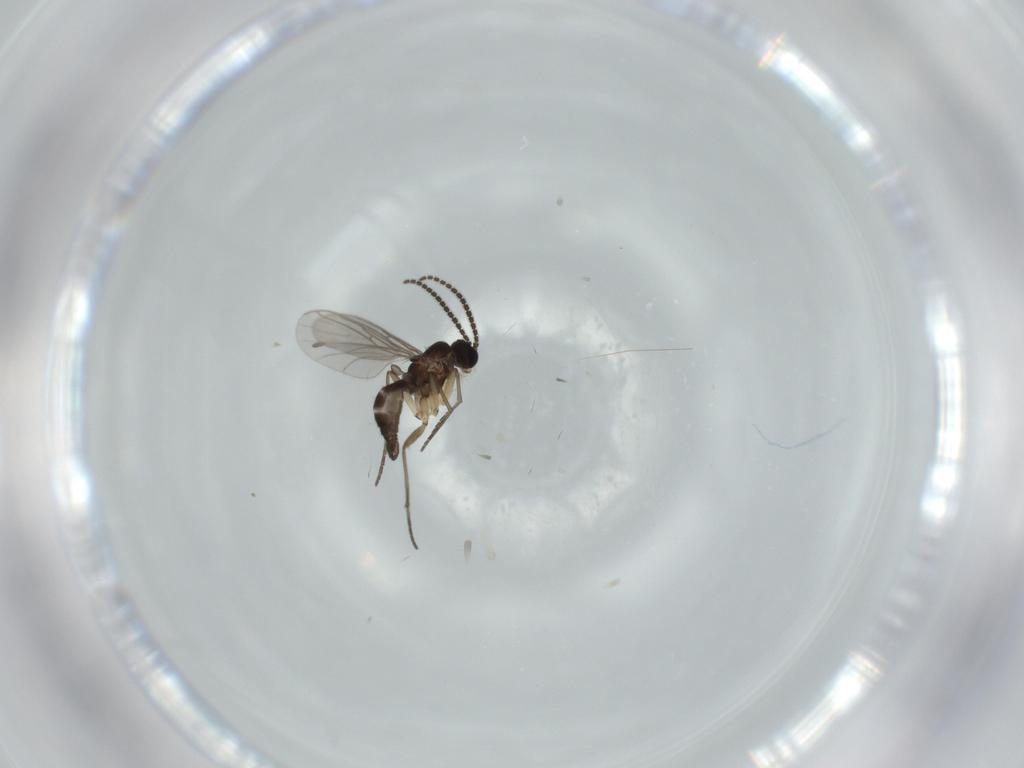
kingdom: Animalia
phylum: Arthropoda
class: Insecta
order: Diptera
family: Sciaridae
